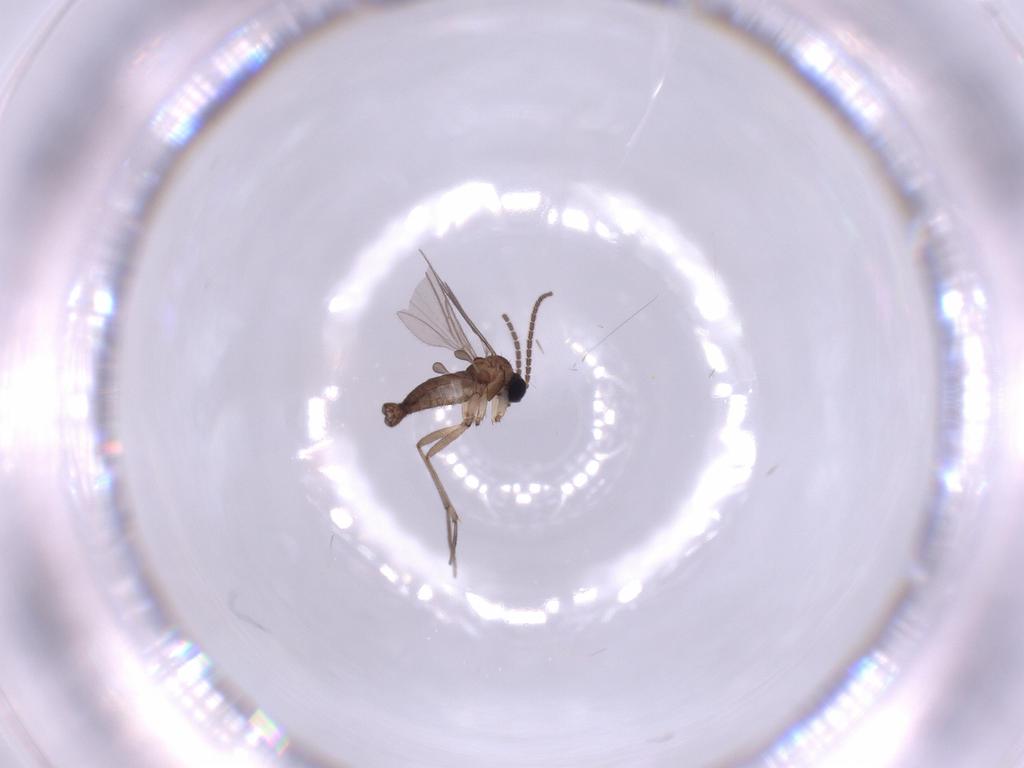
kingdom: Animalia
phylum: Arthropoda
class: Insecta
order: Diptera
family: Sciaridae
